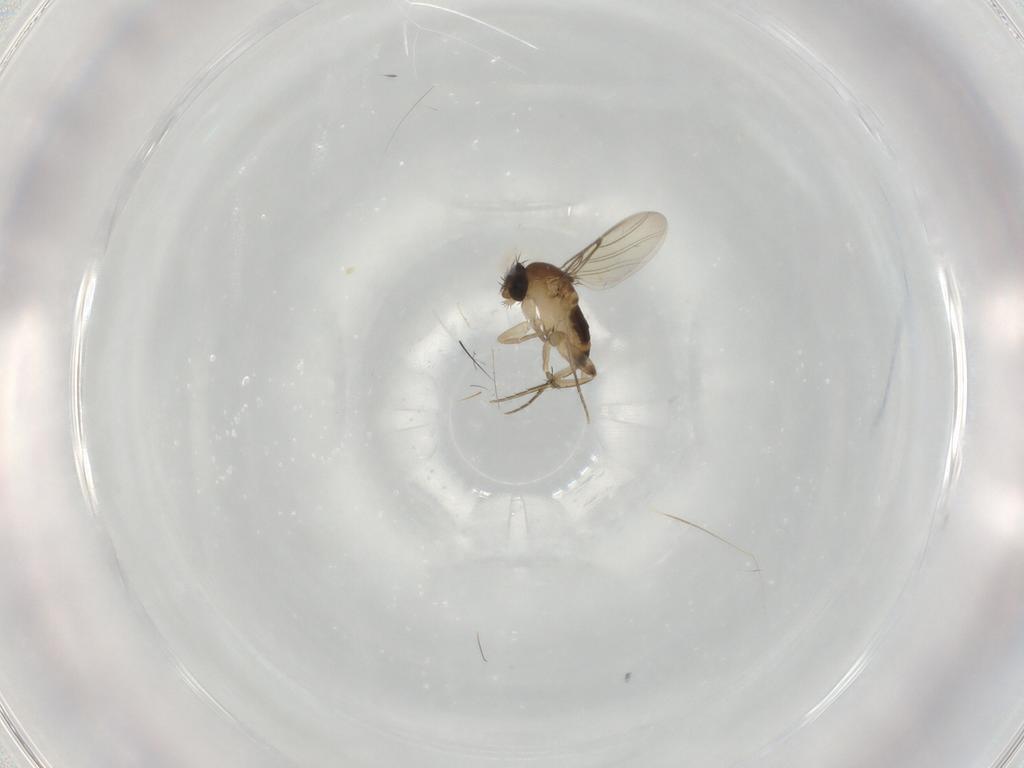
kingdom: Animalia
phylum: Arthropoda
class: Insecta
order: Diptera
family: Phoridae
